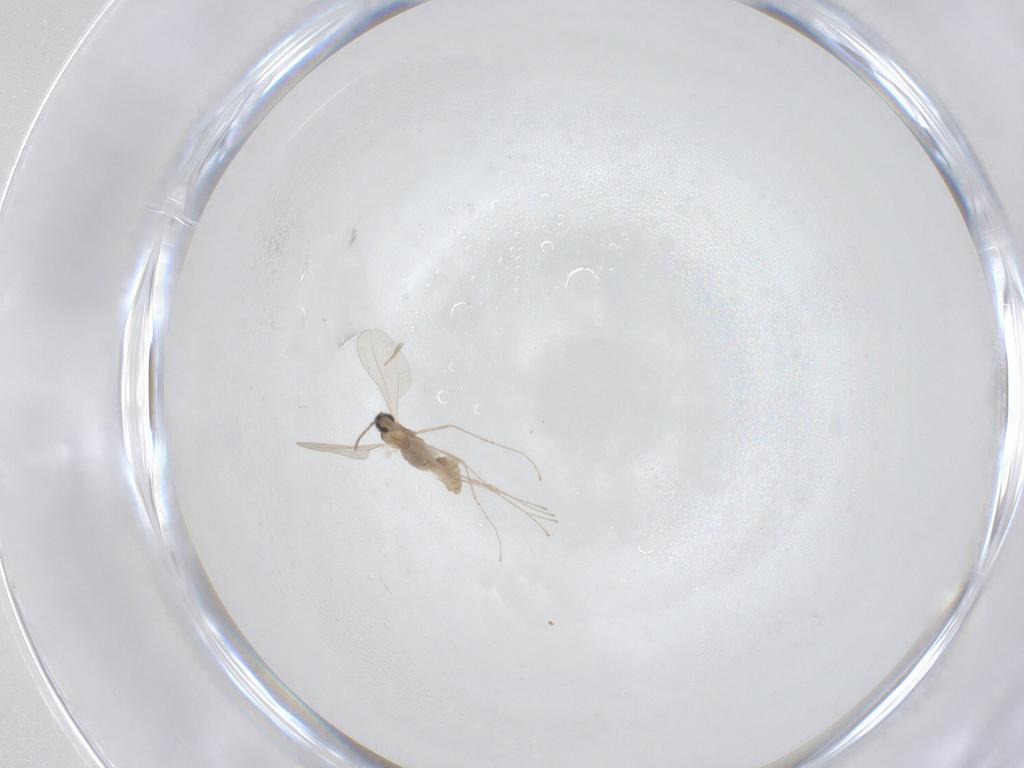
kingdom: Animalia
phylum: Arthropoda
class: Insecta
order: Diptera
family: Cecidomyiidae
